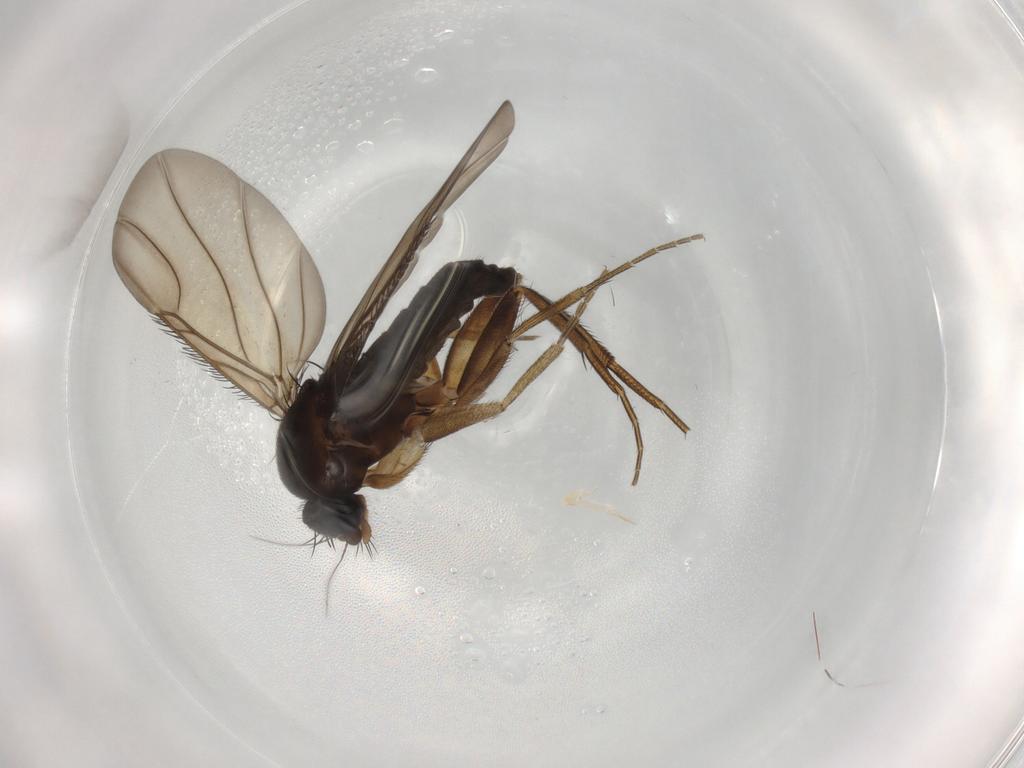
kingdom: Animalia
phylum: Arthropoda
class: Insecta
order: Diptera
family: Phoridae
